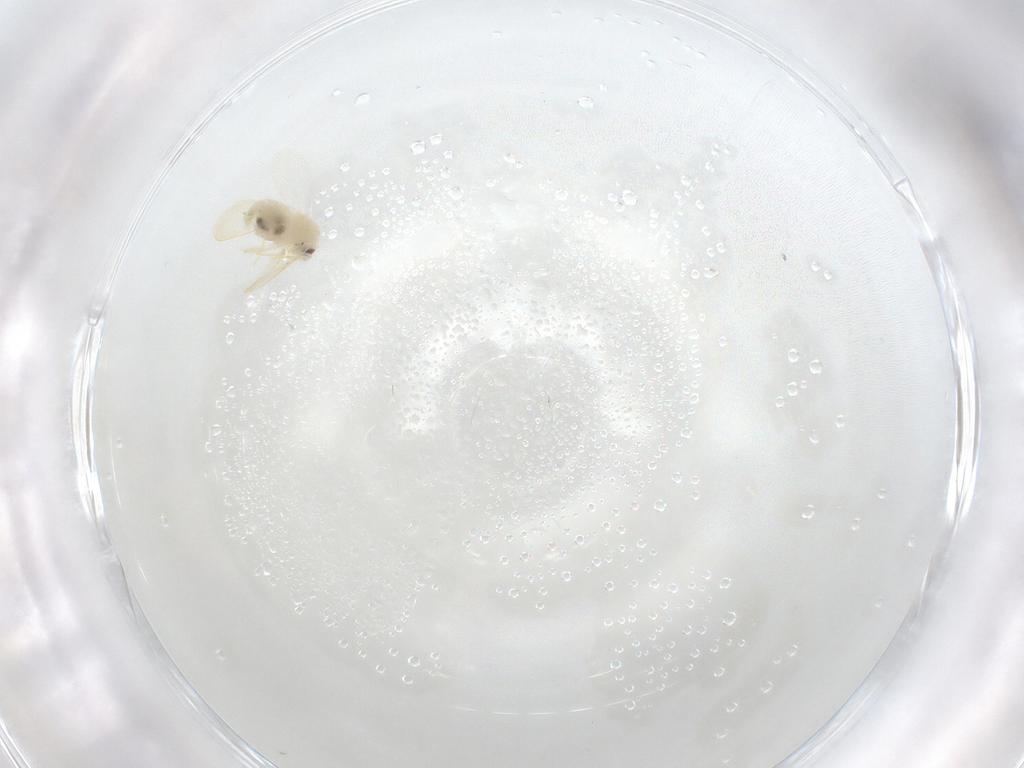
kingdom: Animalia
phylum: Arthropoda
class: Insecta
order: Hemiptera
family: Aleyrodidae
